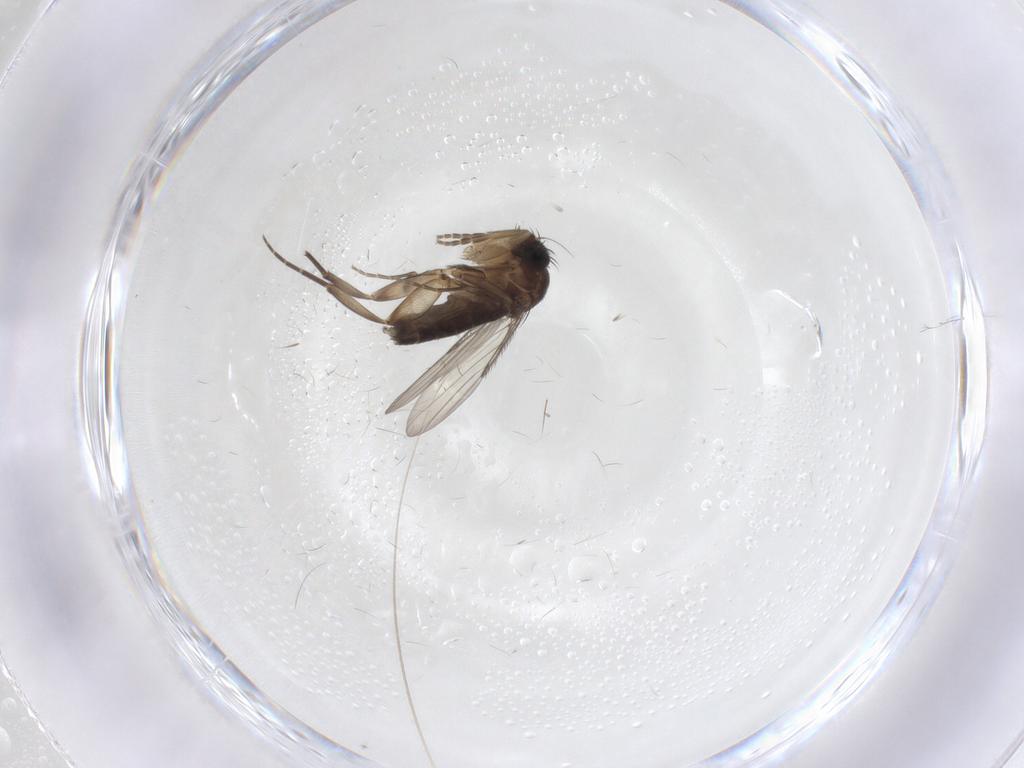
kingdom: Animalia
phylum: Arthropoda
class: Insecta
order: Diptera
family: Phoridae
